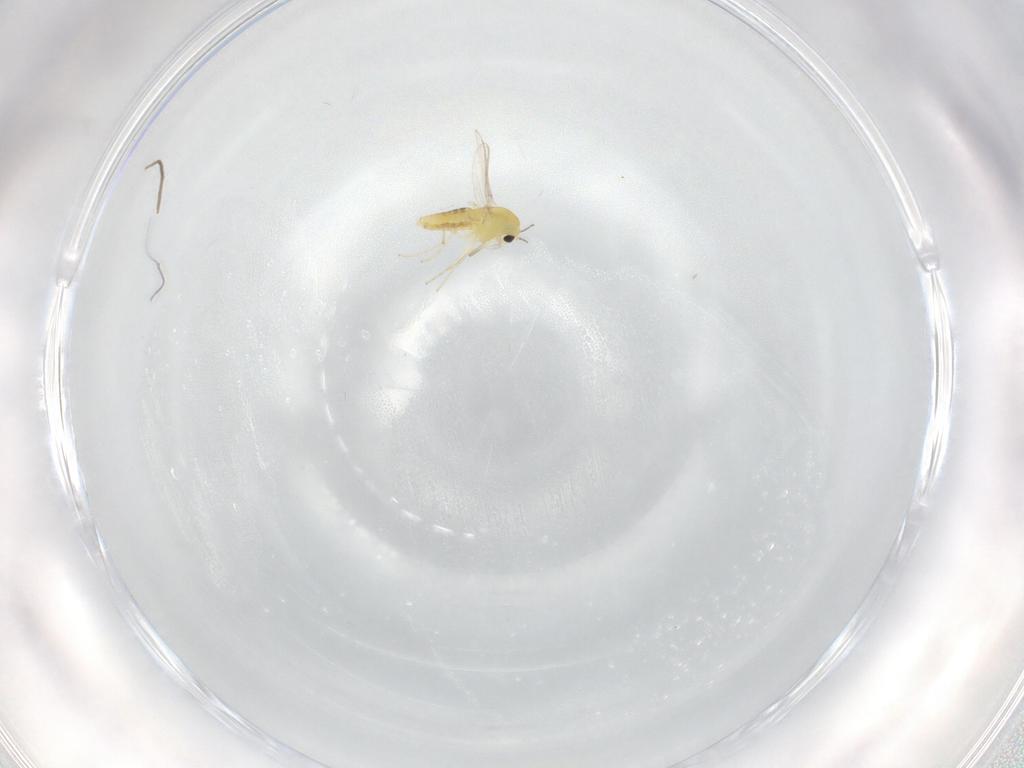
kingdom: Animalia
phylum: Arthropoda
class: Insecta
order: Diptera
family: Chironomidae
